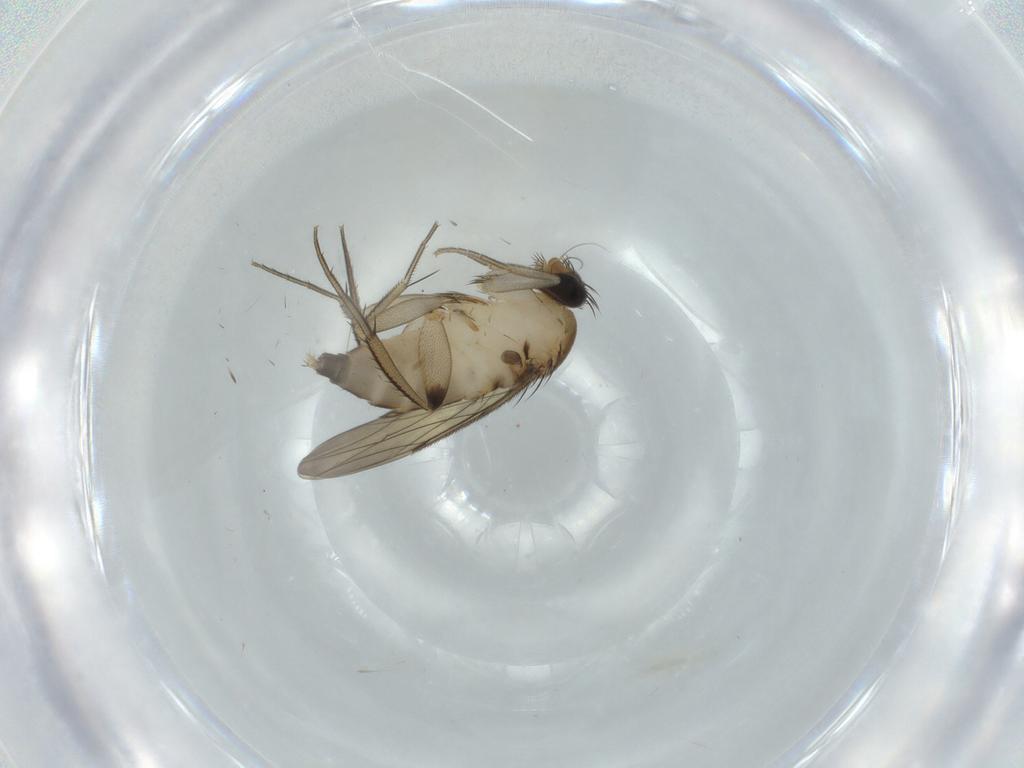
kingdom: Animalia
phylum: Arthropoda
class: Insecta
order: Diptera
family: Phoridae
